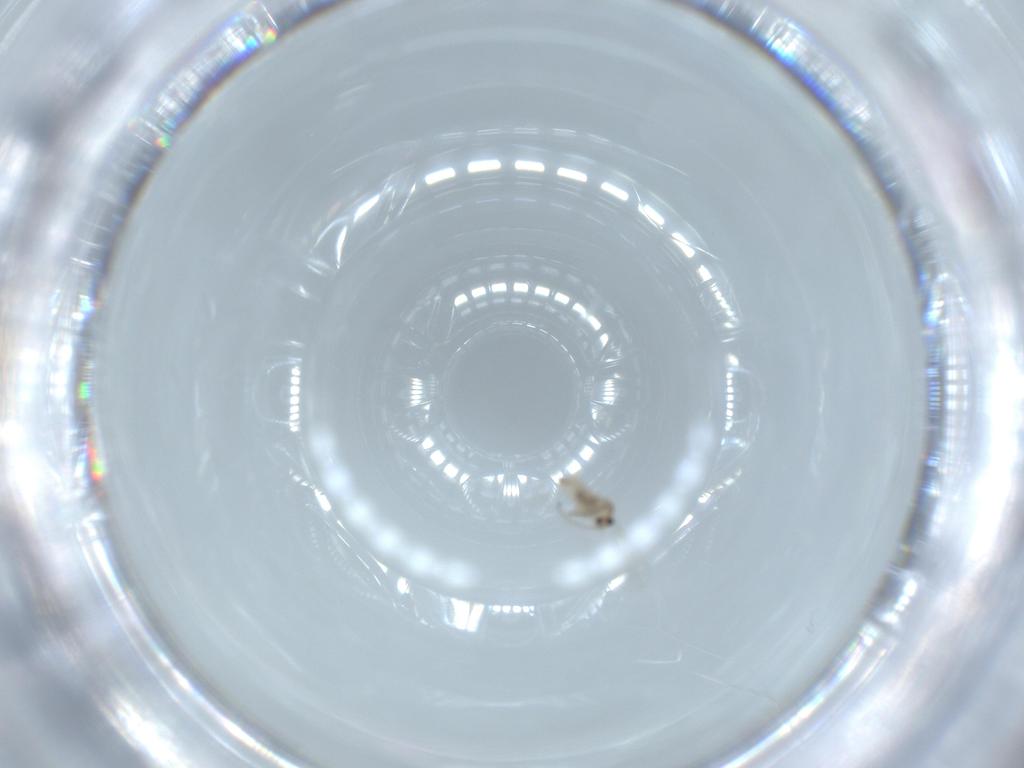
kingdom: Animalia
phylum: Arthropoda
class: Insecta
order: Diptera
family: Cecidomyiidae
